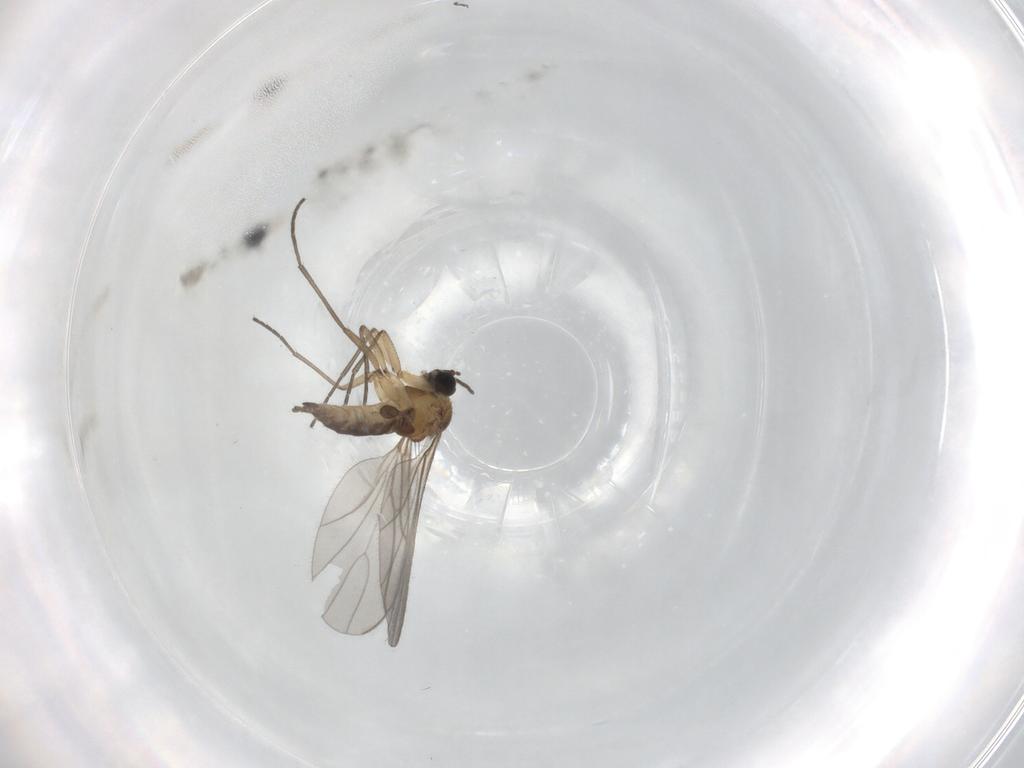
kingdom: Animalia
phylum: Arthropoda
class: Insecta
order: Diptera
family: Sciaridae
